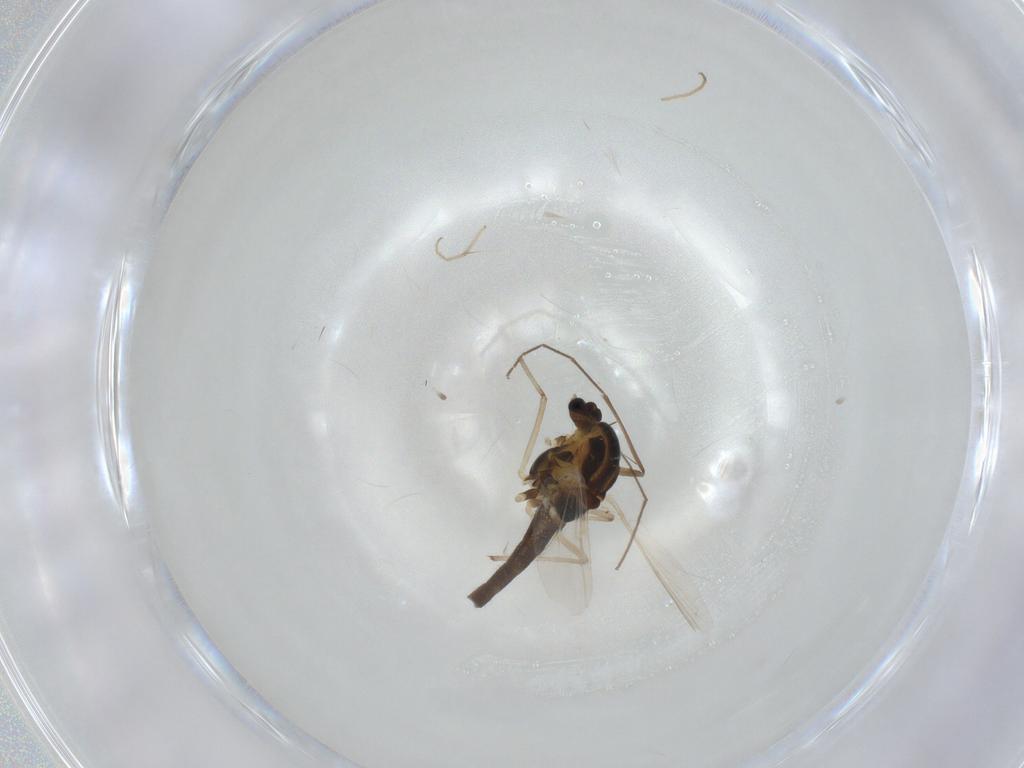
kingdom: Animalia
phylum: Arthropoda
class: Insecta
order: Diptera
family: Chironomidae
